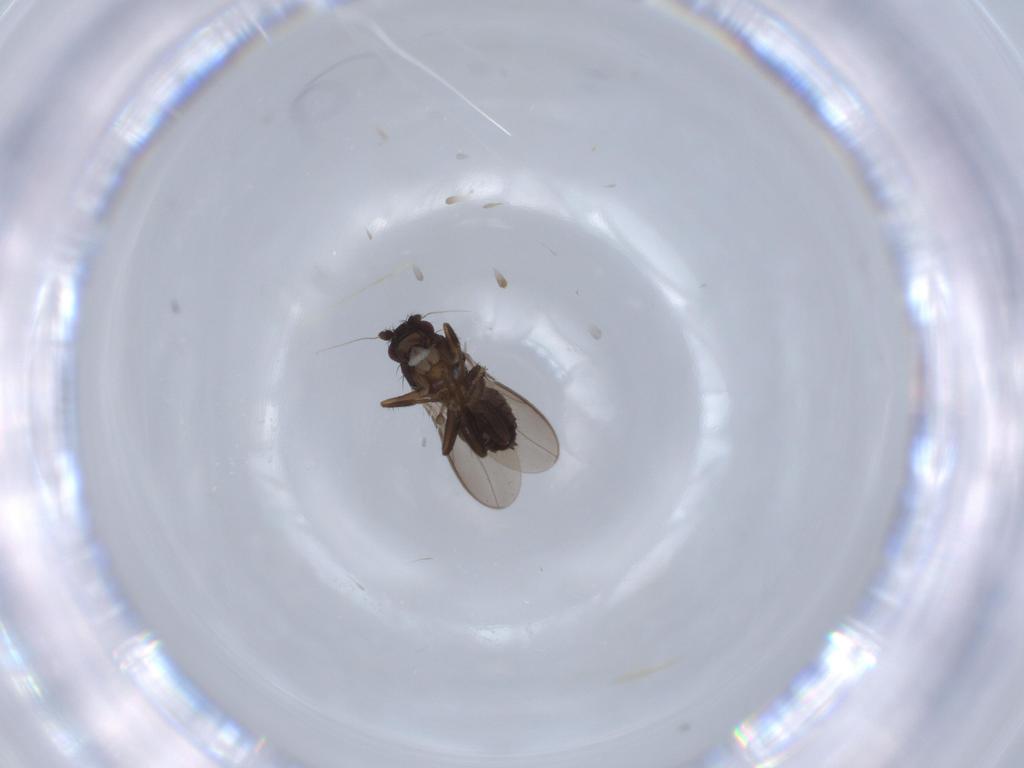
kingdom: Animalia
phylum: Arthropoda
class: Insecta
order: Diptera
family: Sphaeroceridae
